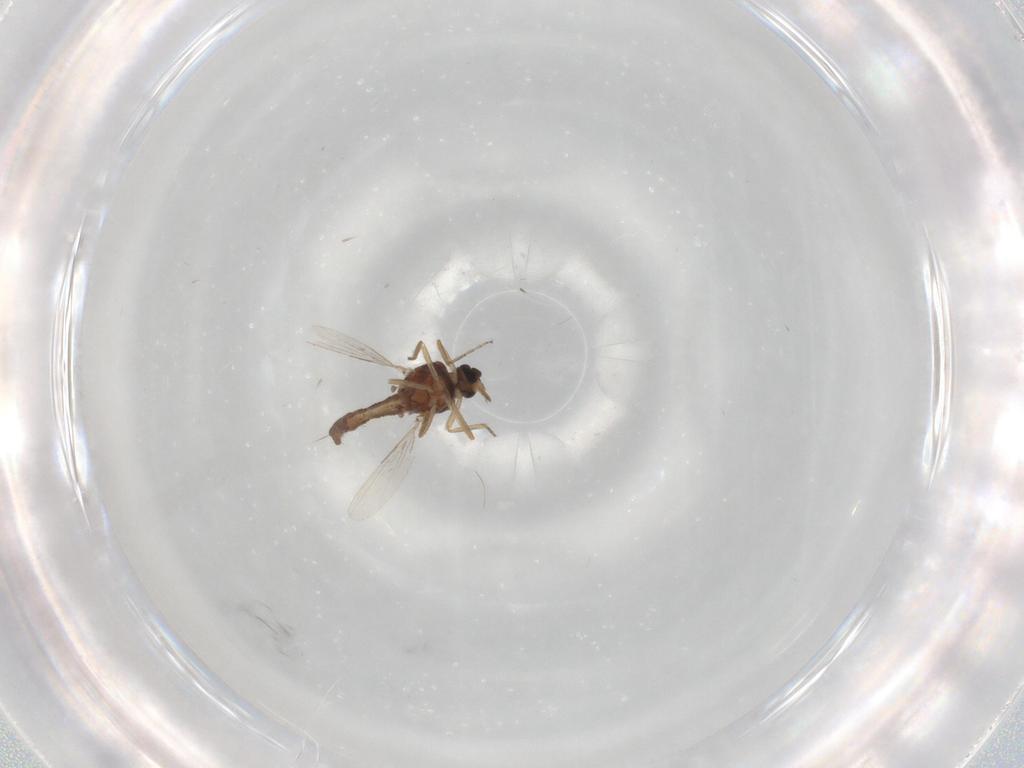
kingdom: Animalia
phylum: Arthropoda
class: Insecta
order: Diptera
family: Ceratopogonidae
